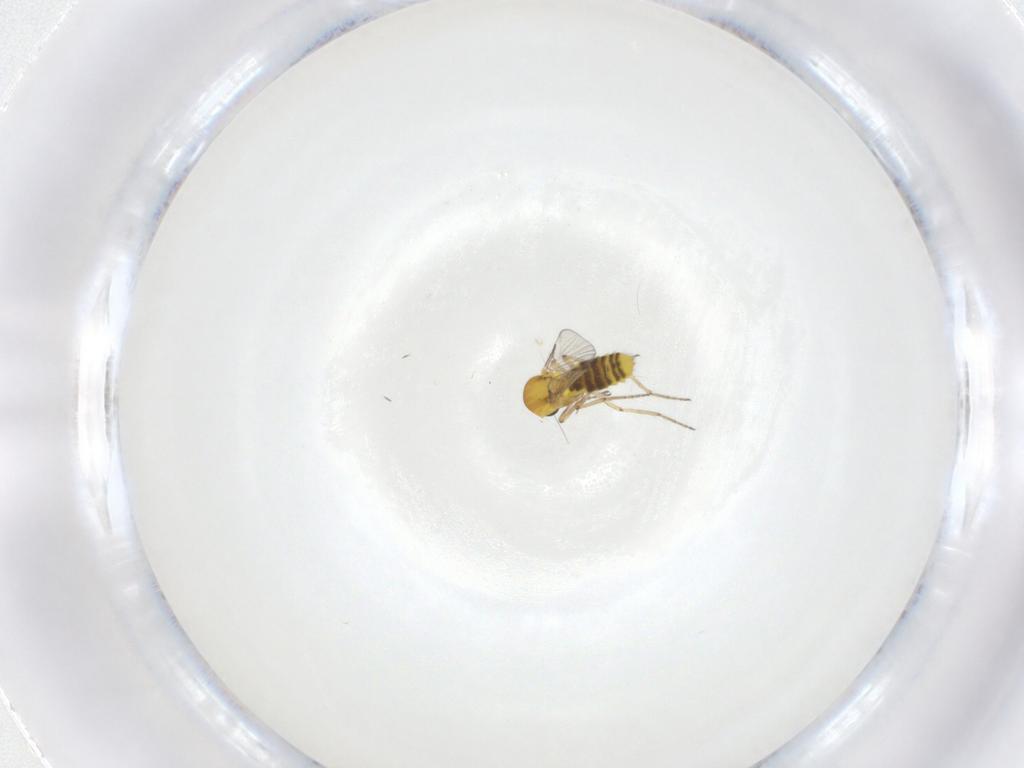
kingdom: Animalia
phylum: Arthropoda
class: Insecta
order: Diptera
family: Ceratopogonidae
